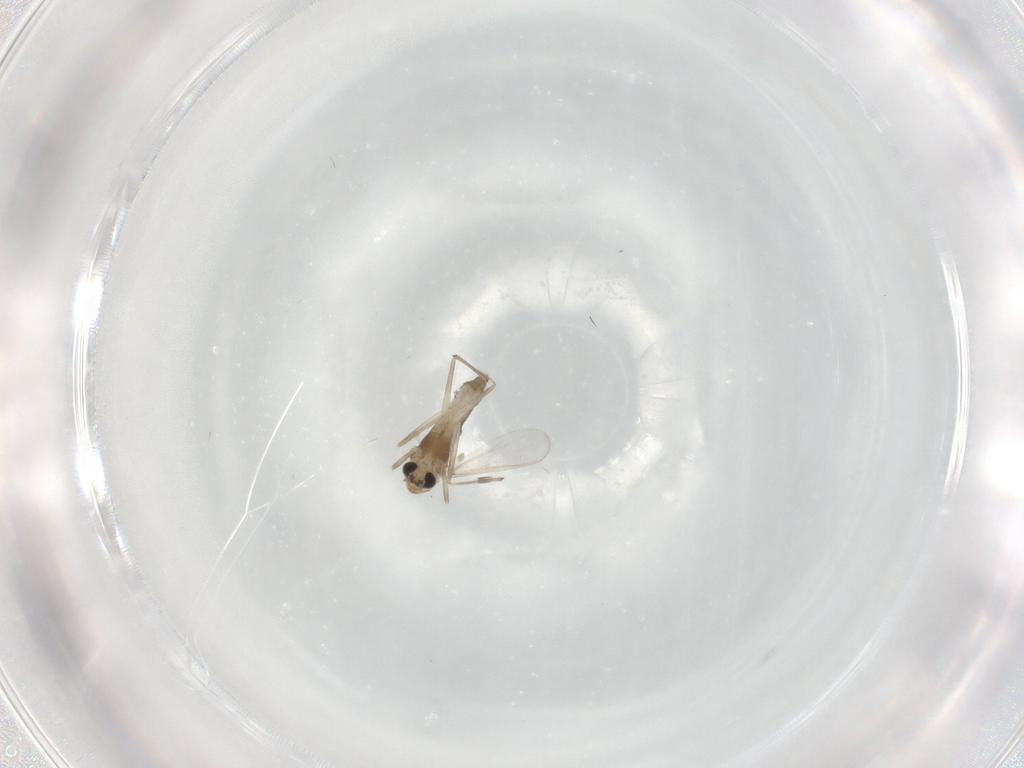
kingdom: Animalia
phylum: Arthropoda
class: Insecta
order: Diptera
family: Chironomidae
